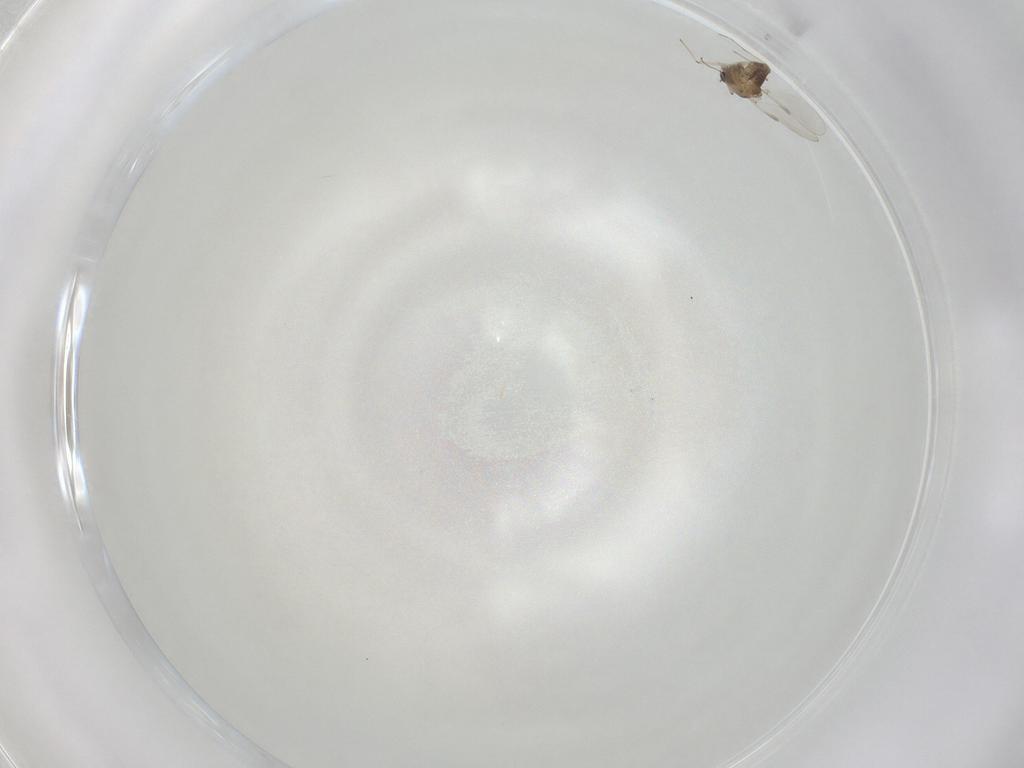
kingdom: Animalia
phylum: Arthropoda
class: Insecta
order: Diptera
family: Chironomidae
